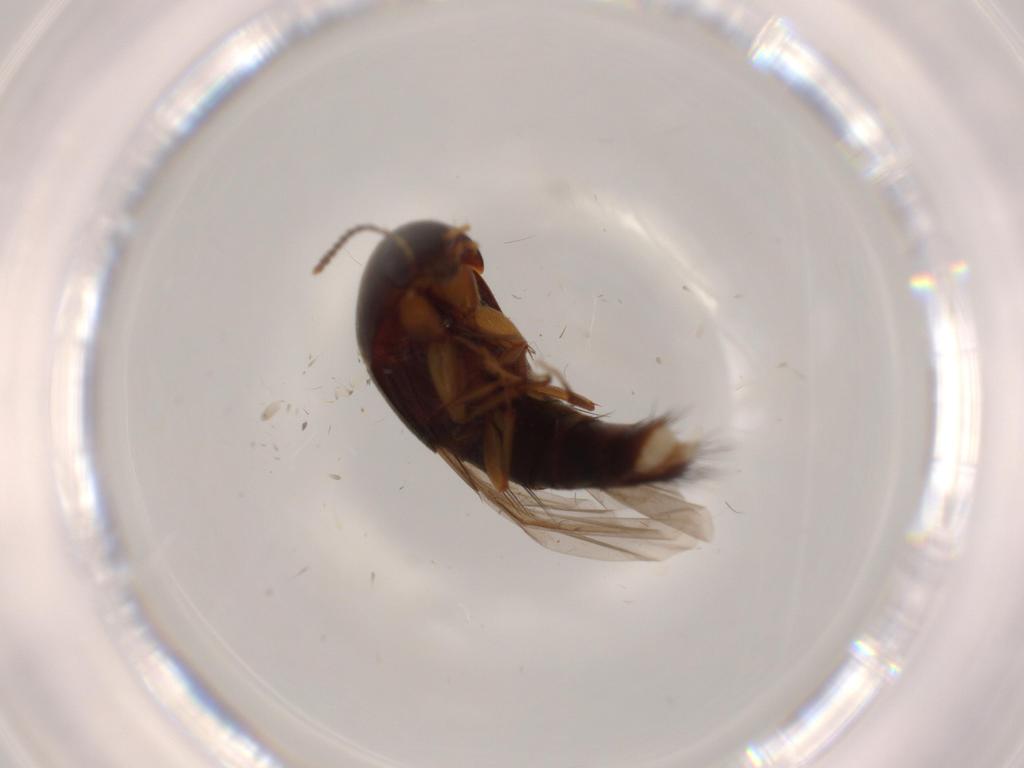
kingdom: Animalia
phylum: Arthropoda
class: Insecta
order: Coleoptera
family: Staphylinidae
